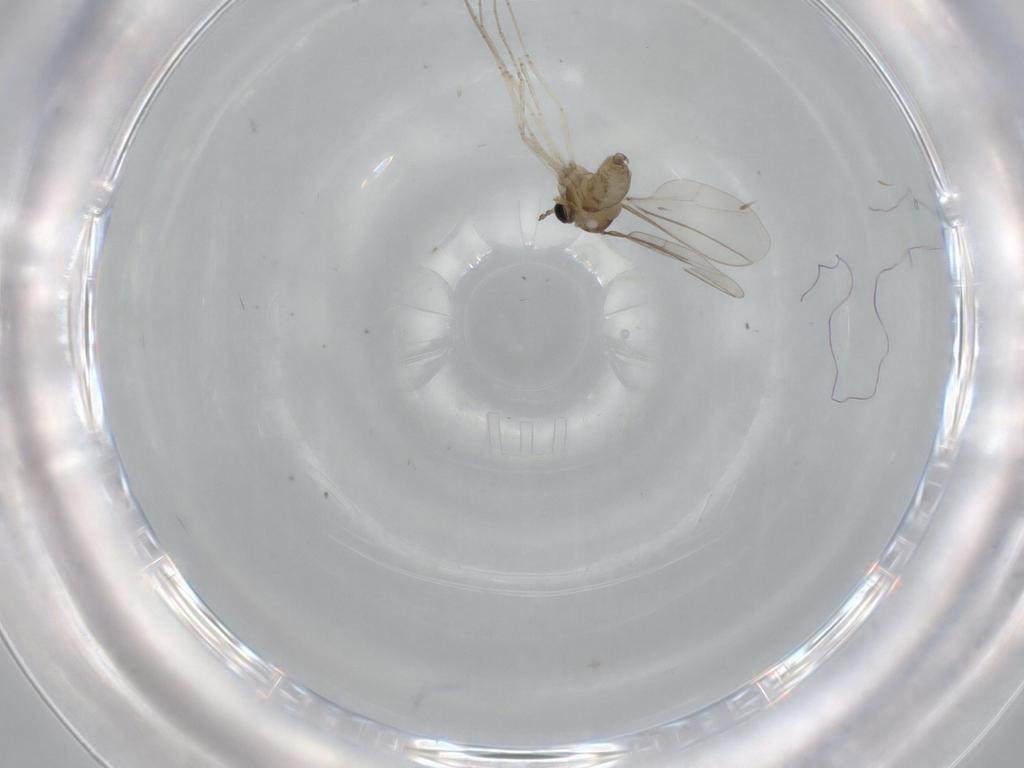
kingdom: Animalia
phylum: Arthropoda
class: Insecta
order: Diptera
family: Cecidomyiidae
